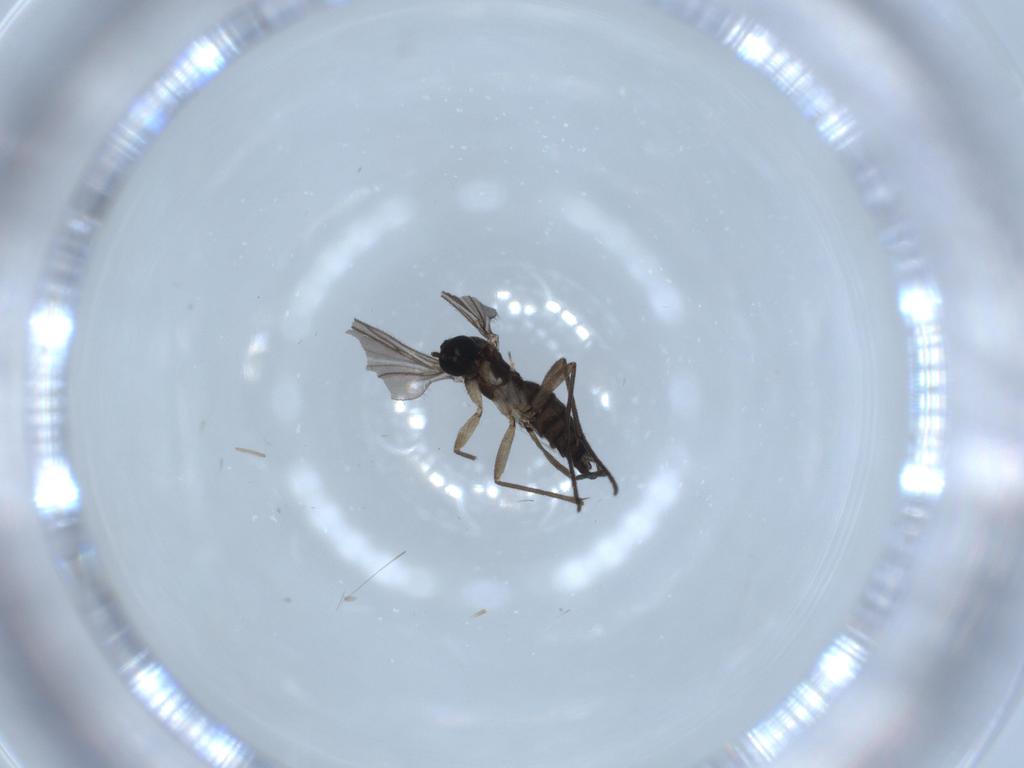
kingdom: Animalia
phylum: Arthropoda
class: Insecta
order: Diptera
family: Sciaridae
